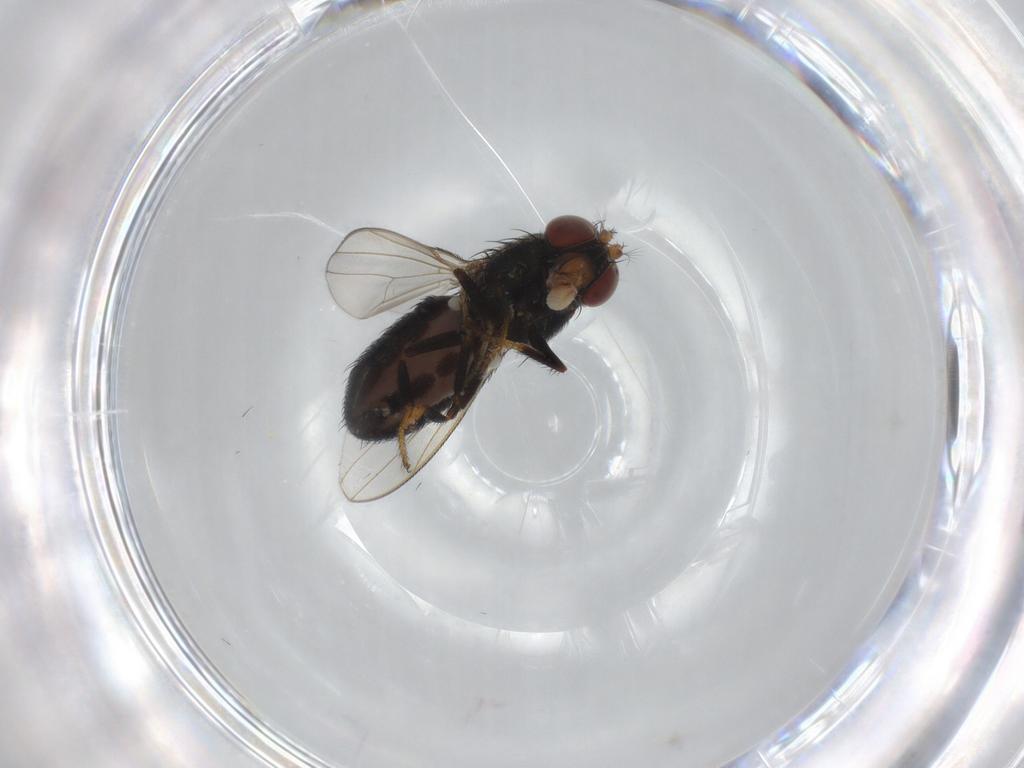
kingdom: Animalia
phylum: Arthropoda
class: Insecta
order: Diptera
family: Ephydridae
